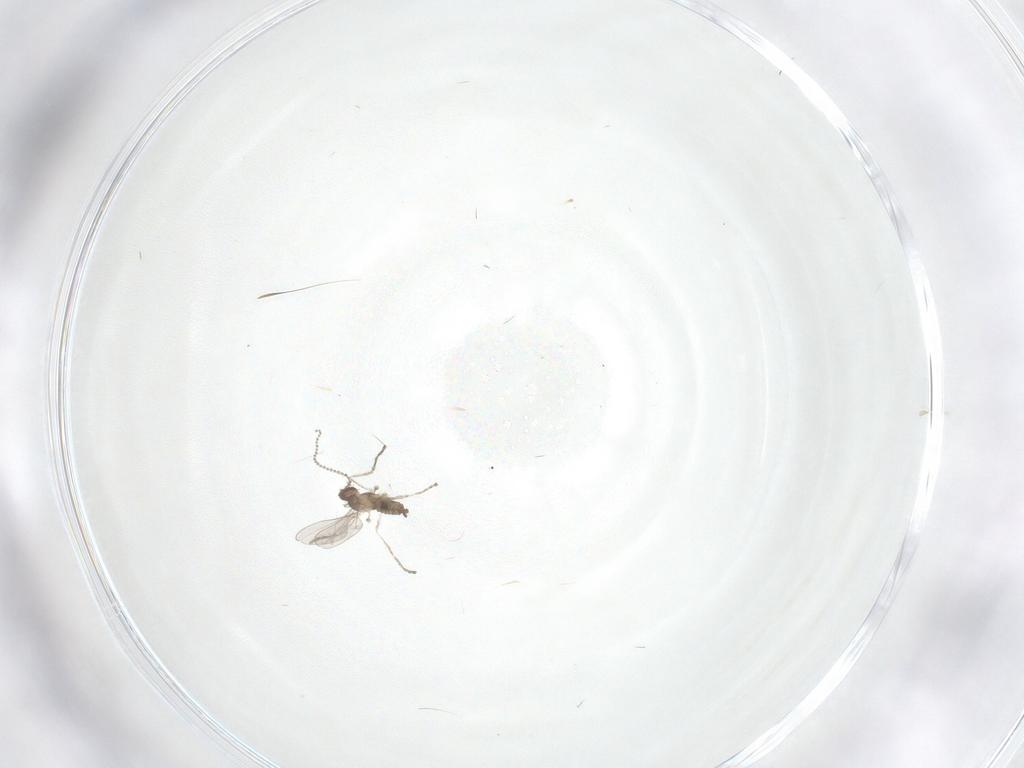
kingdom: Animalia
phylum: Arthropoda
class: Insecta
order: Diptera
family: Cecidomyiidae
